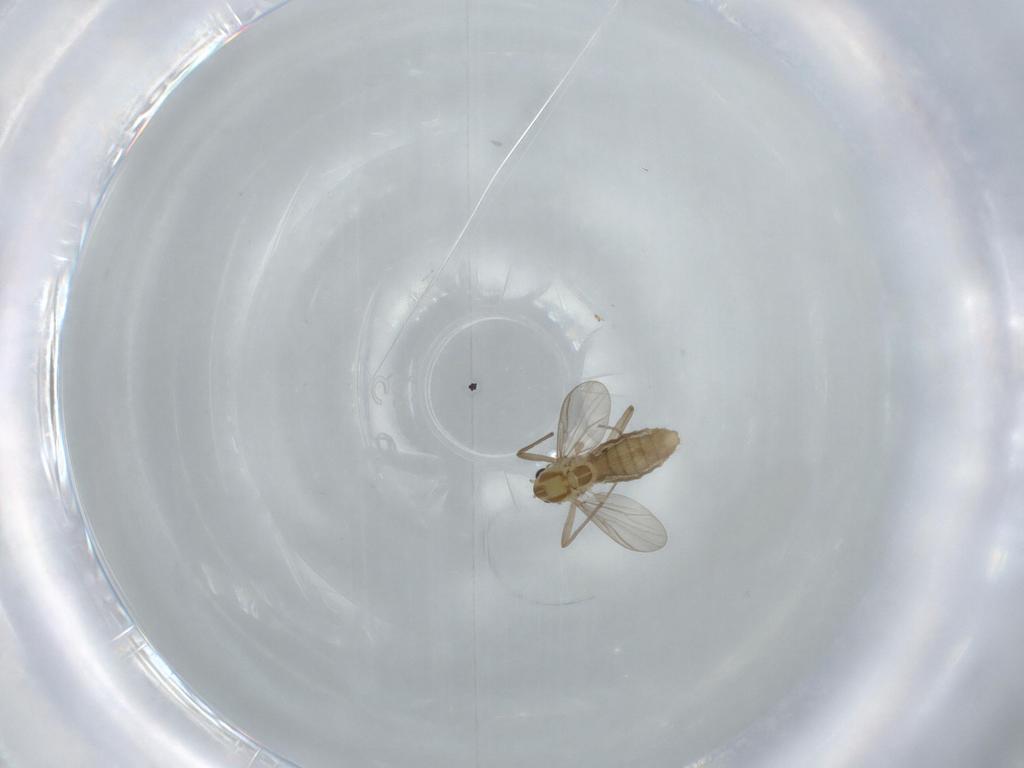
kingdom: Animalia
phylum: Arthropoda
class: Insecta
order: Diptera
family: Chironomidae
